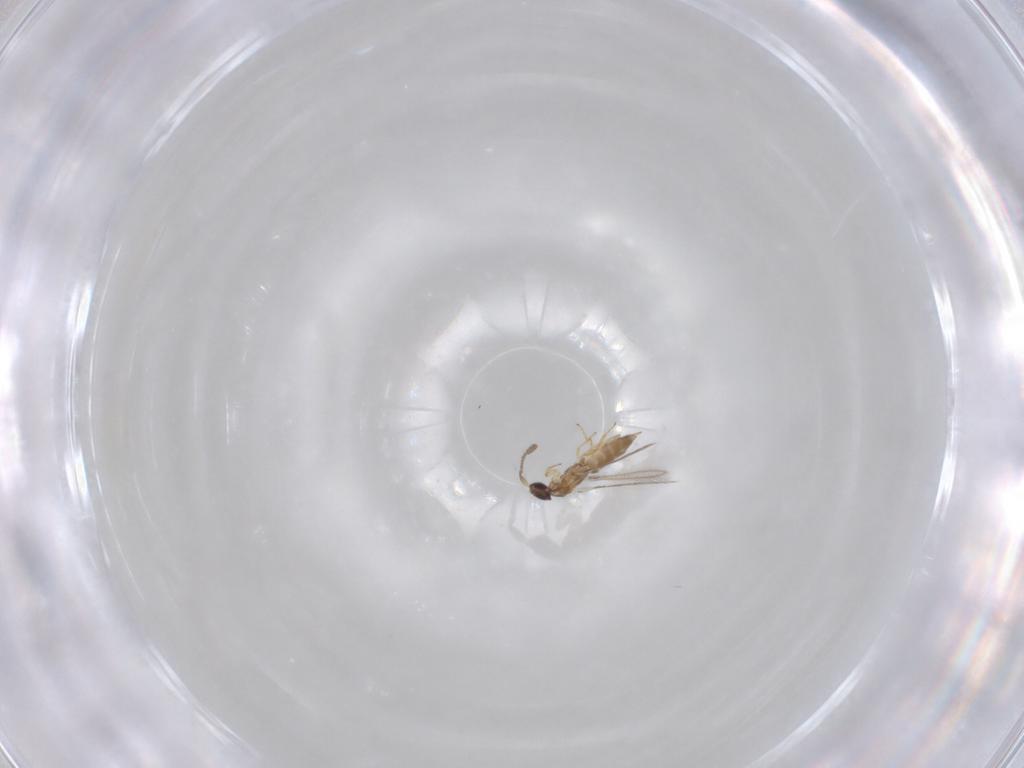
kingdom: Animalia
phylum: Arthropoda
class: Insecta
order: Hymenoptera
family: Mymaridae
